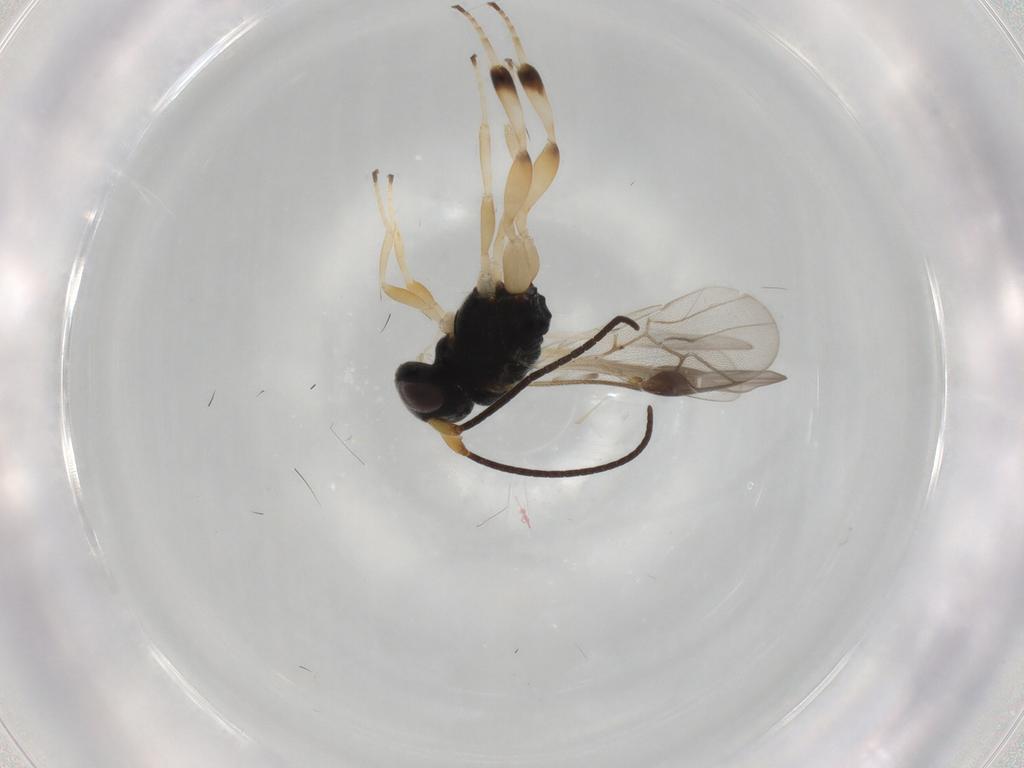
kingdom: Animalia
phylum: Arthropoda
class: Insecta
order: Hymenoptera
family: Braconidae
